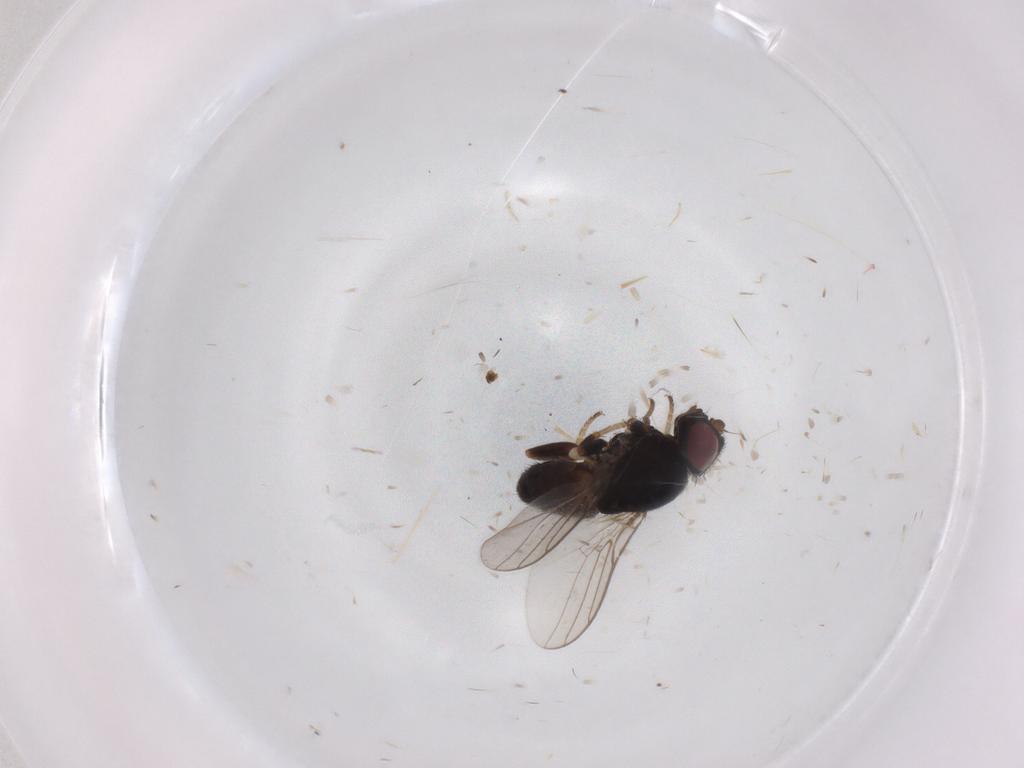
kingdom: Animalia
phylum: Arthropoda
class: Insecta
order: Diptera
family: Chloropidae
